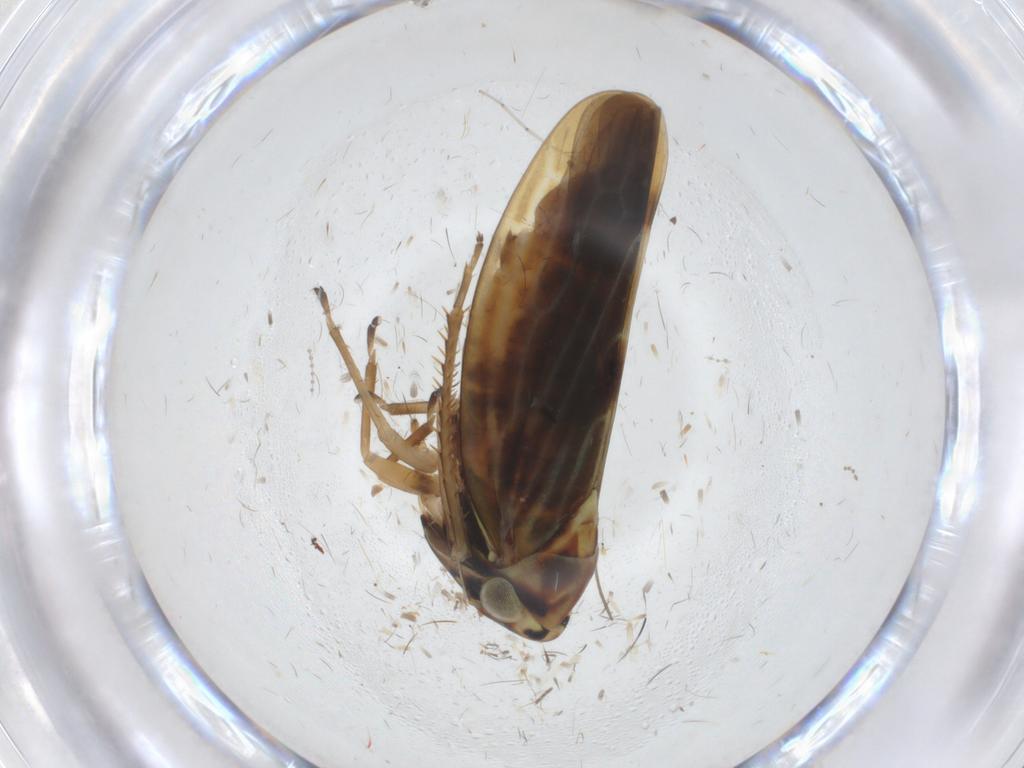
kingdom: Animalia
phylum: Arthropoda
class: Insecta
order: Hemiptera
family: Cicadellidae
